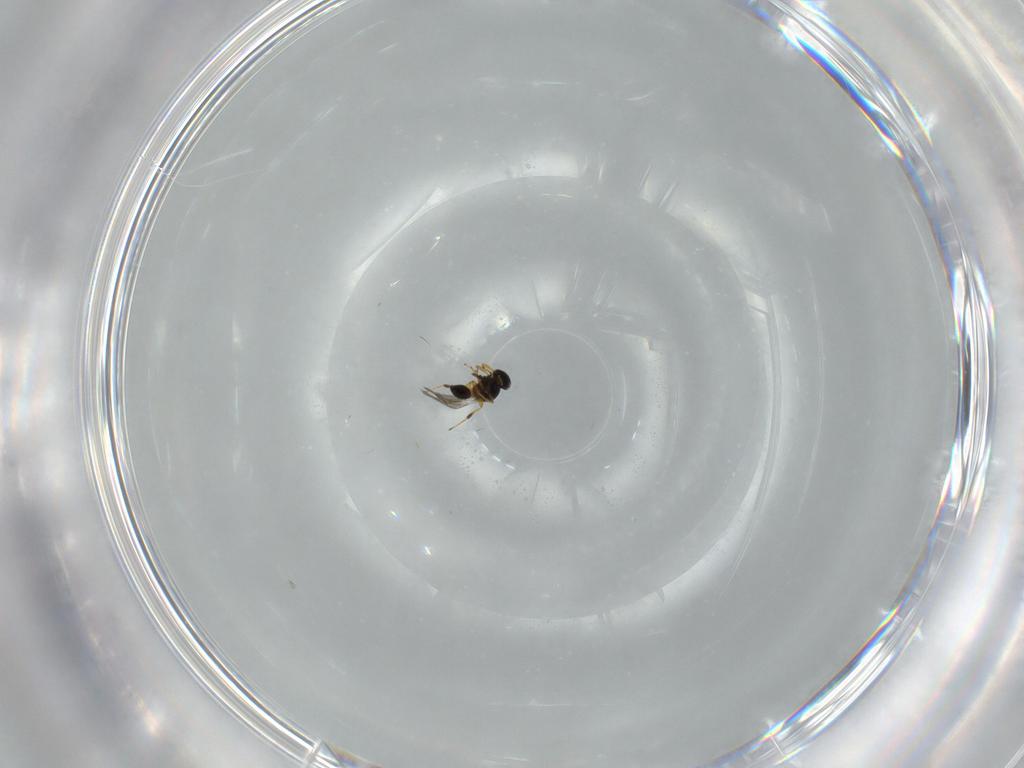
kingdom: Animalia
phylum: Arthropoda
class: Insecta
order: Hymenoptera
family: Platygastridae
